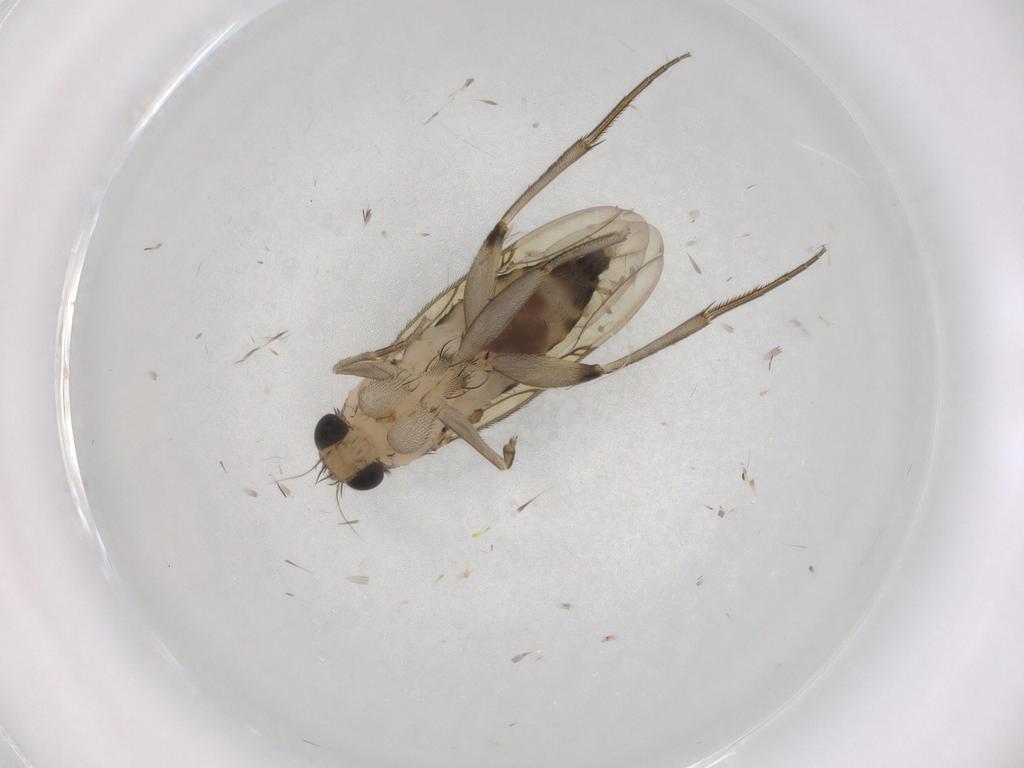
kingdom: Animalia
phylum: Arthropoda
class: Insecta
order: Diptera
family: Phoridae
